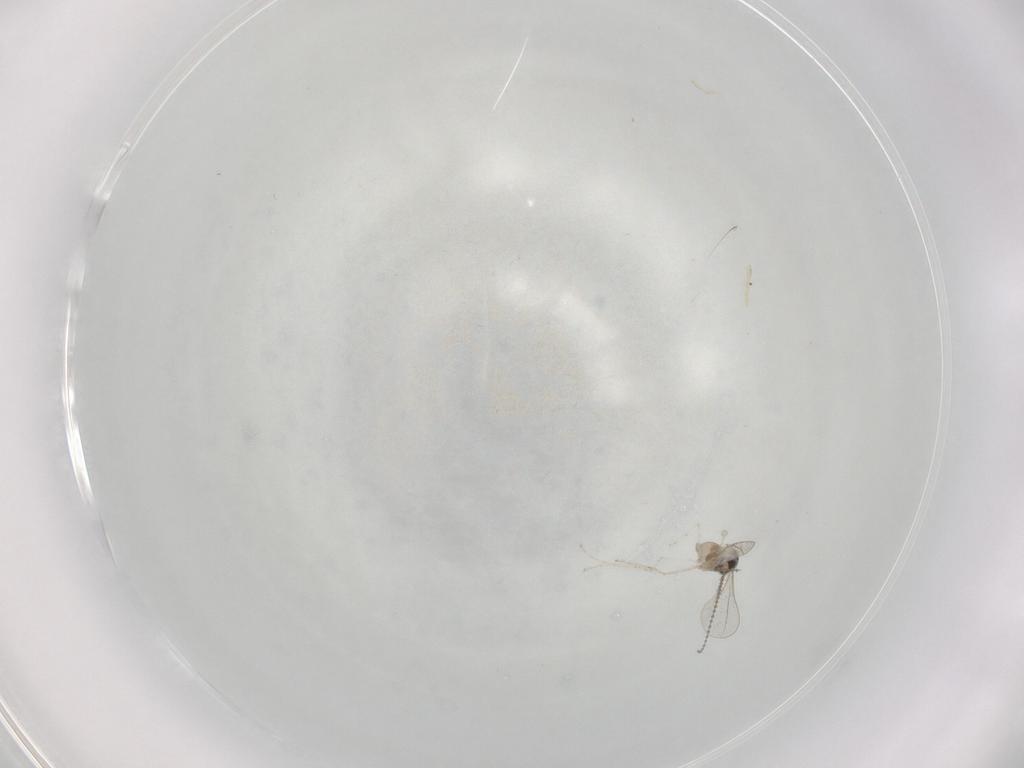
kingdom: Animalia
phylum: Arthropoda
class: Insecta
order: Diptera
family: Cecidomyiidae
